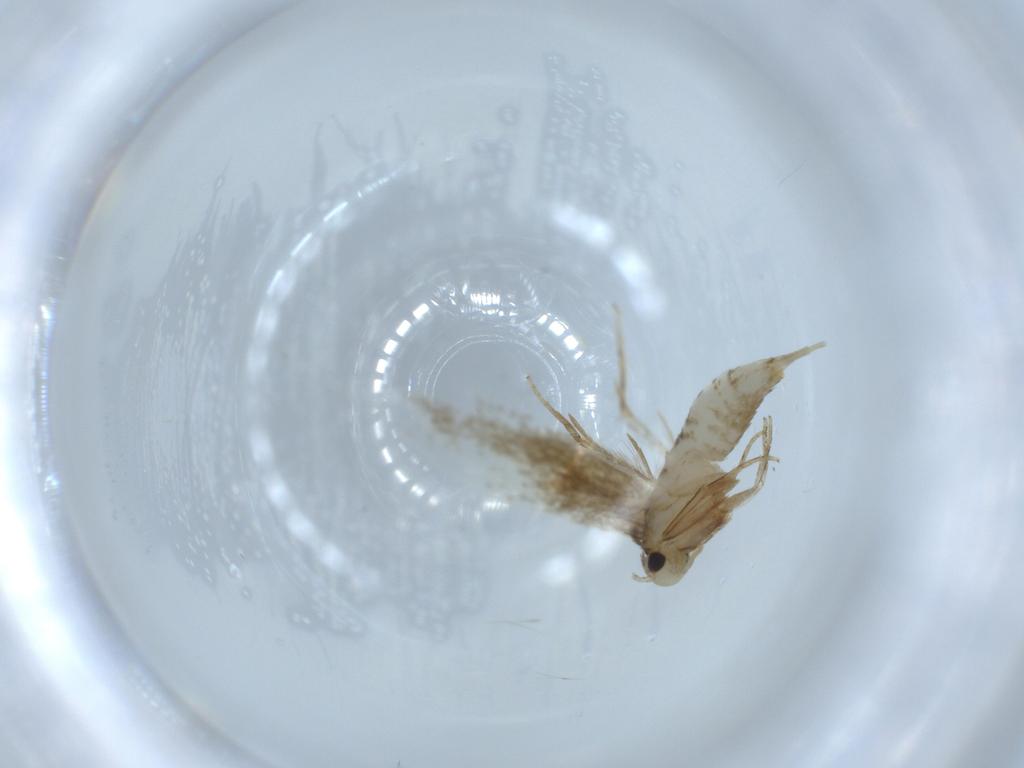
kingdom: Animalia
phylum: Arthropoda
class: Insecta
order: Lepidoptera
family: Tineidae
